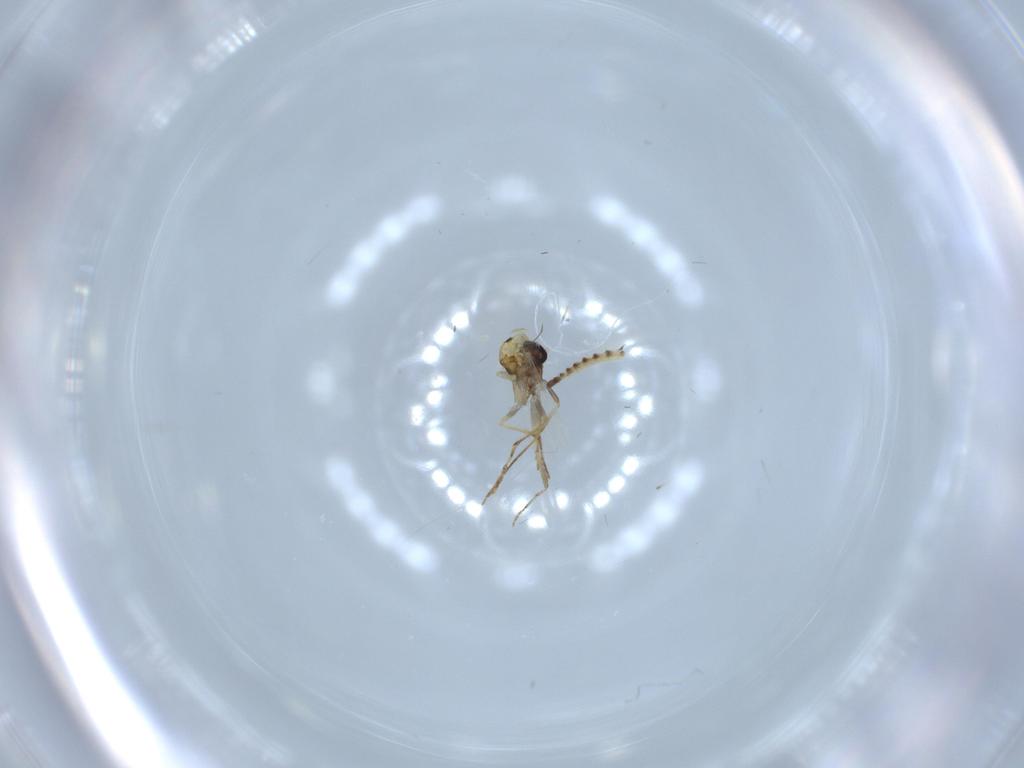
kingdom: Animalia
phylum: Arthropoda
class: Insecta
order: Diptera
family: Ceratopogonidae
